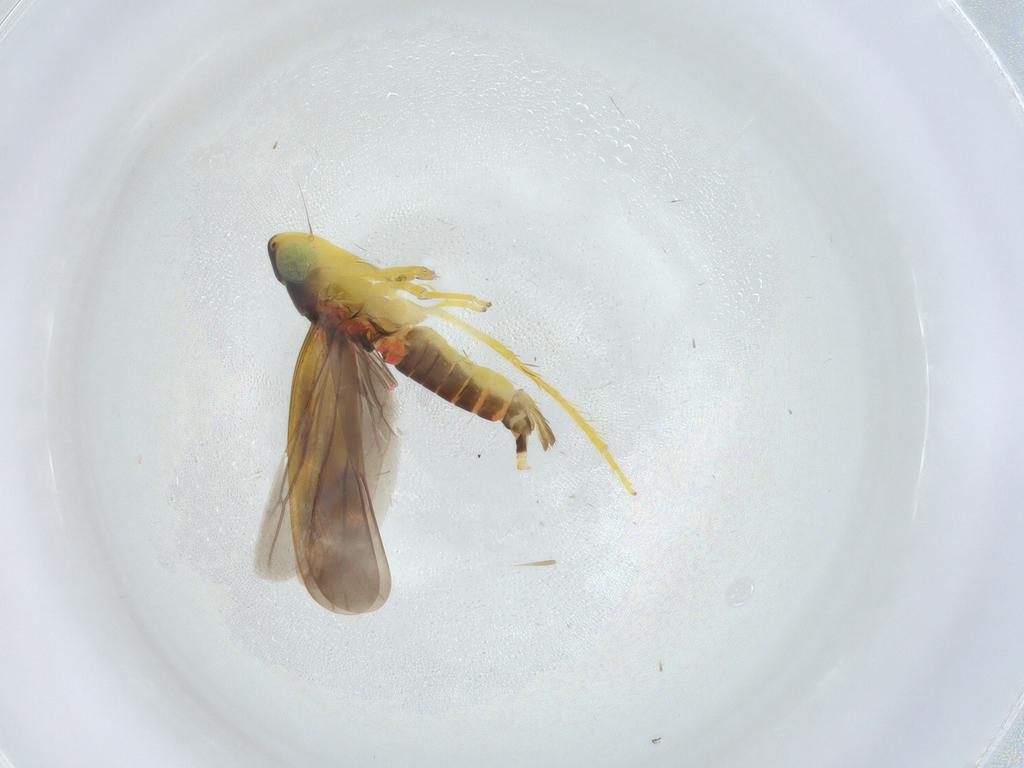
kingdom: Animalia
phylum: Arthropoda
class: Insecta
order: Hemiptera
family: Cicadellidae
